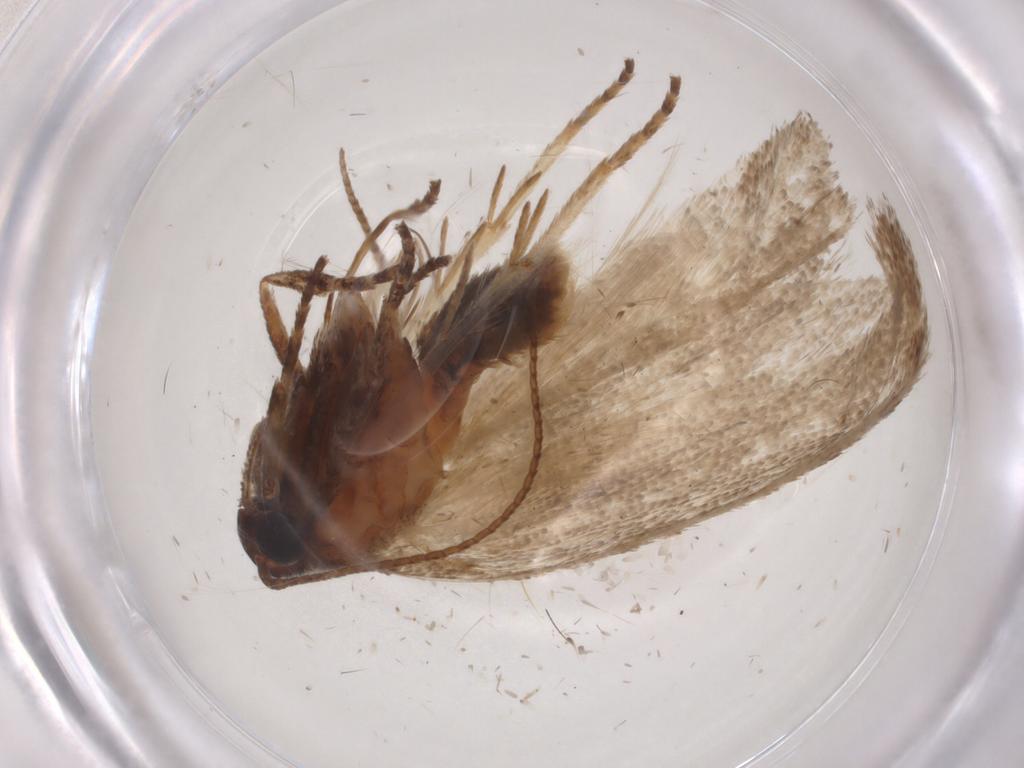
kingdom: Animalia
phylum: Arthropoda
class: Insecta
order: Lepidoptera
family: Cosmopterigidae
